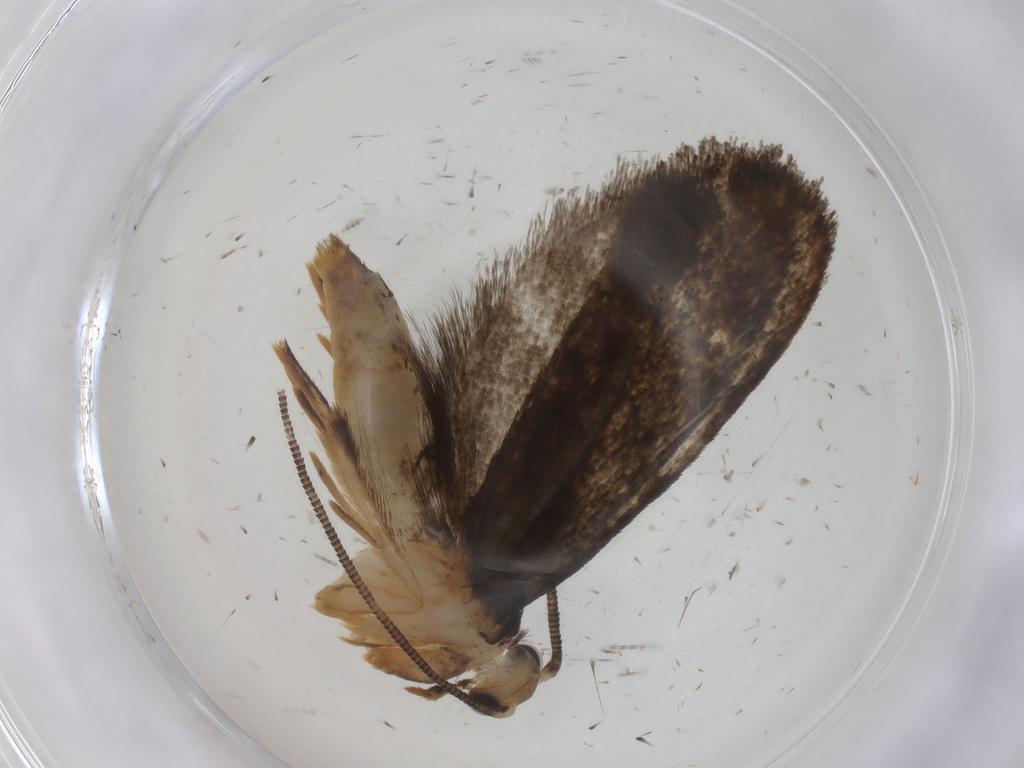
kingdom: Animalia
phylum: Arthropoda
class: Insecta
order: Lepidoptera
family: Tineidae
